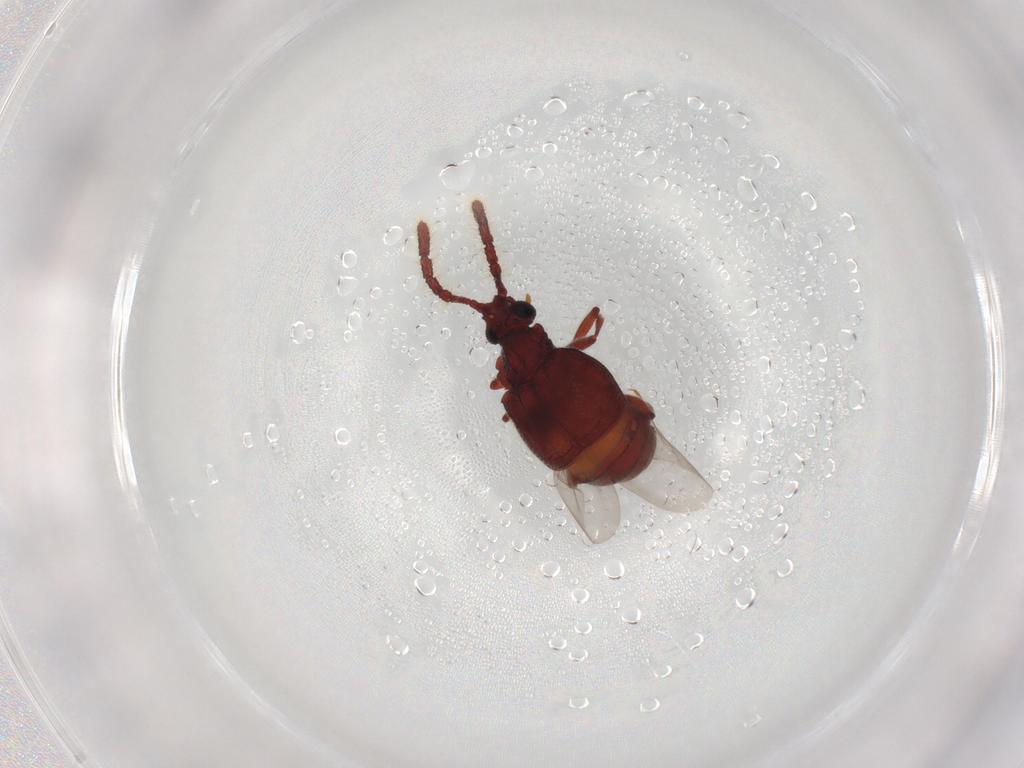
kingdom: Animalia
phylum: Arthropoda
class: Insecta
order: Coleoptera
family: Staphylinidae
